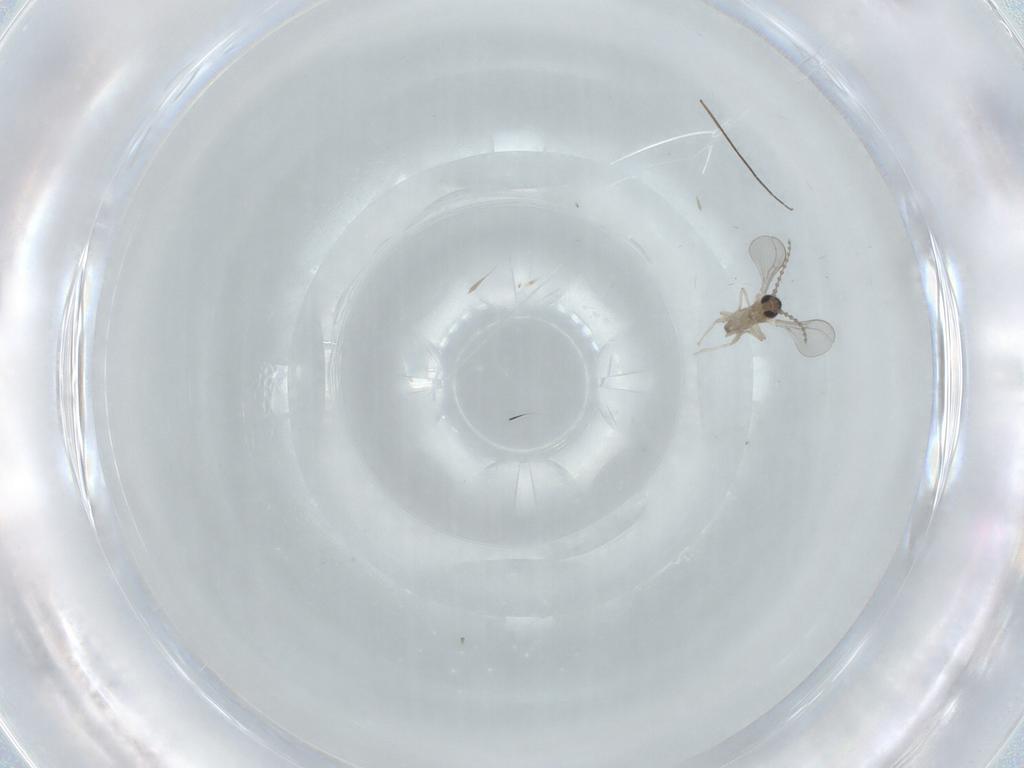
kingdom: Animalia
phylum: Arthropoda
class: Insecta
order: Diptera
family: Cecidomyiidae
